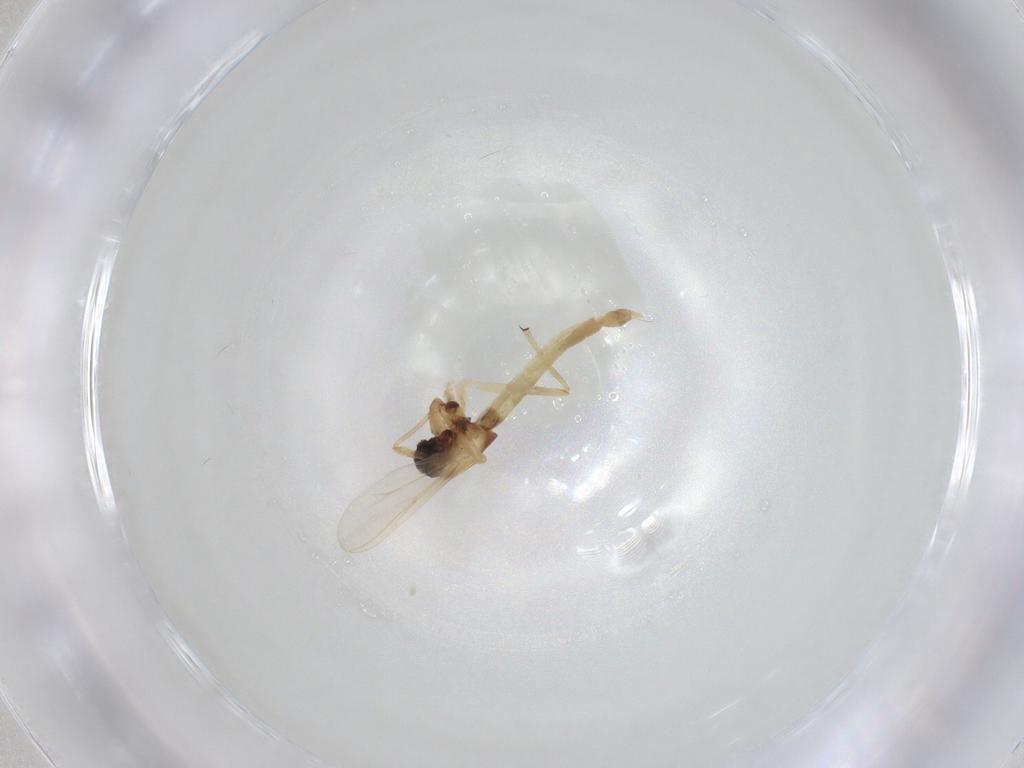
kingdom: Animalia
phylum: Arthropoda
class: Insecta
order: Diptera
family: Chironomidae
